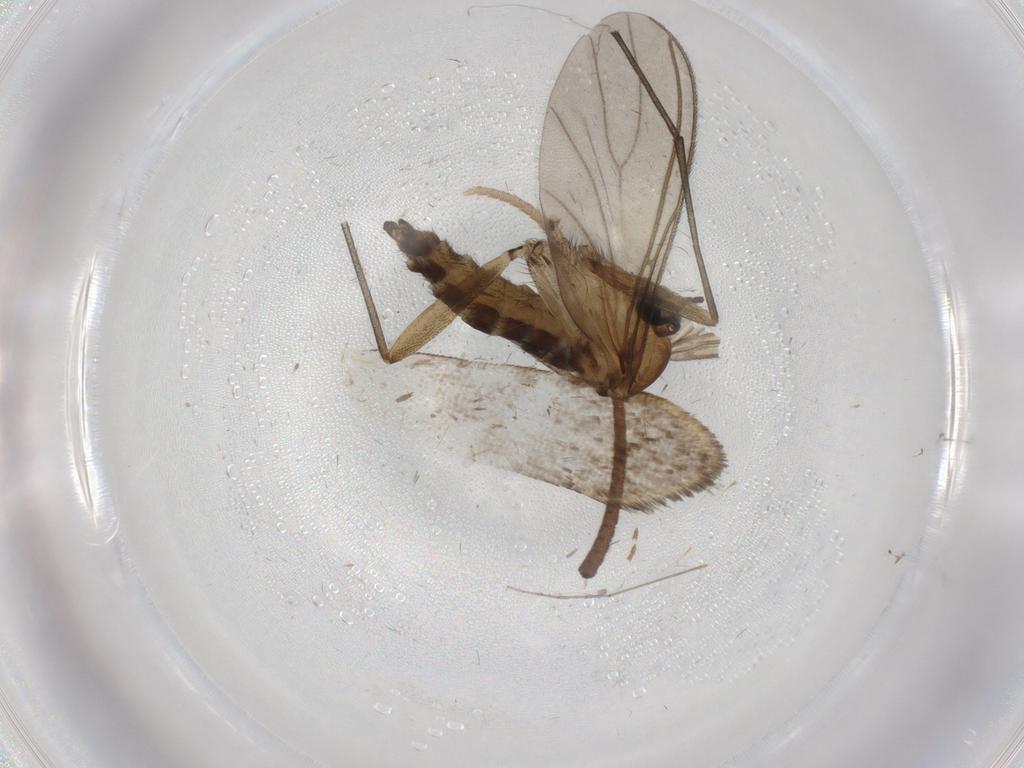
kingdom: Animalia
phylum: Arthropoda
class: Insecta
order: Diptera
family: Sciaridae
